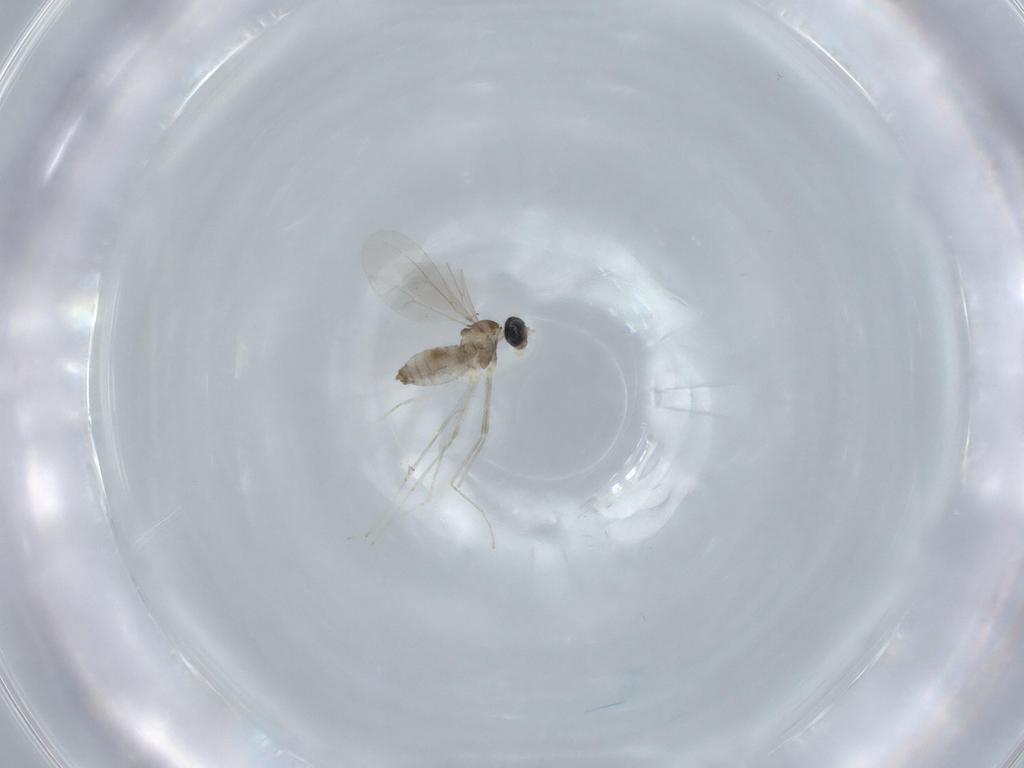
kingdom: Animalia
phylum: Arthropoda
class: Insecta
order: Diptera
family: Cecidomyiidae
